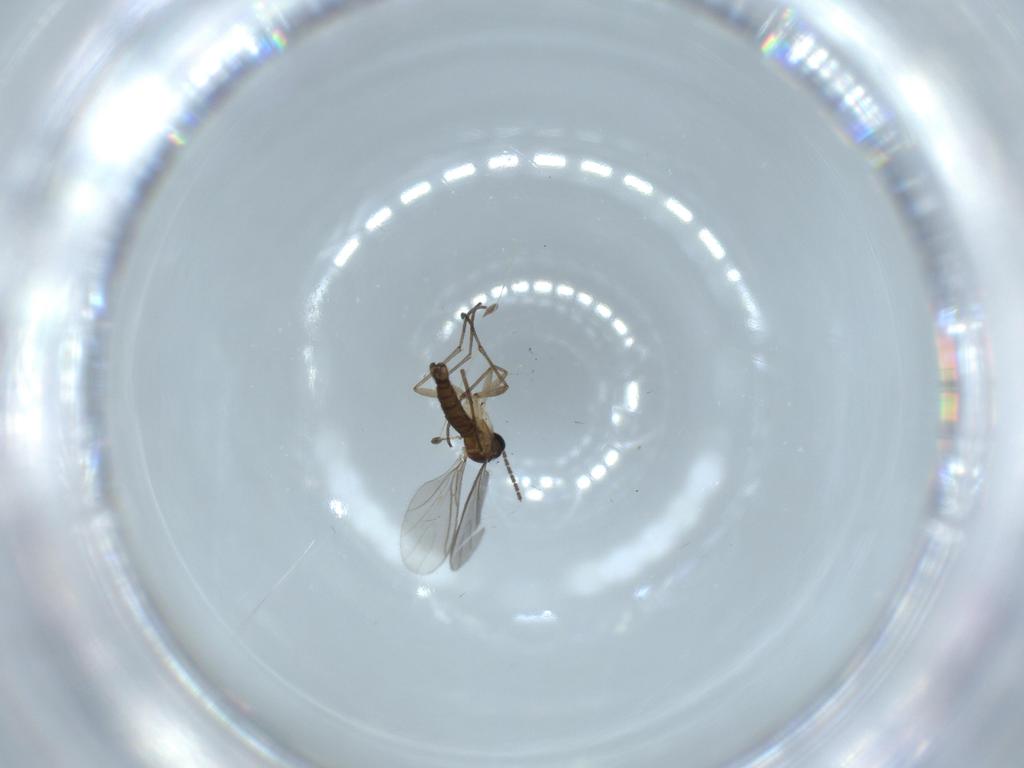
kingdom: Animalia
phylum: Arthropoda
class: Insecta
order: Diptera
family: Sciaridae
